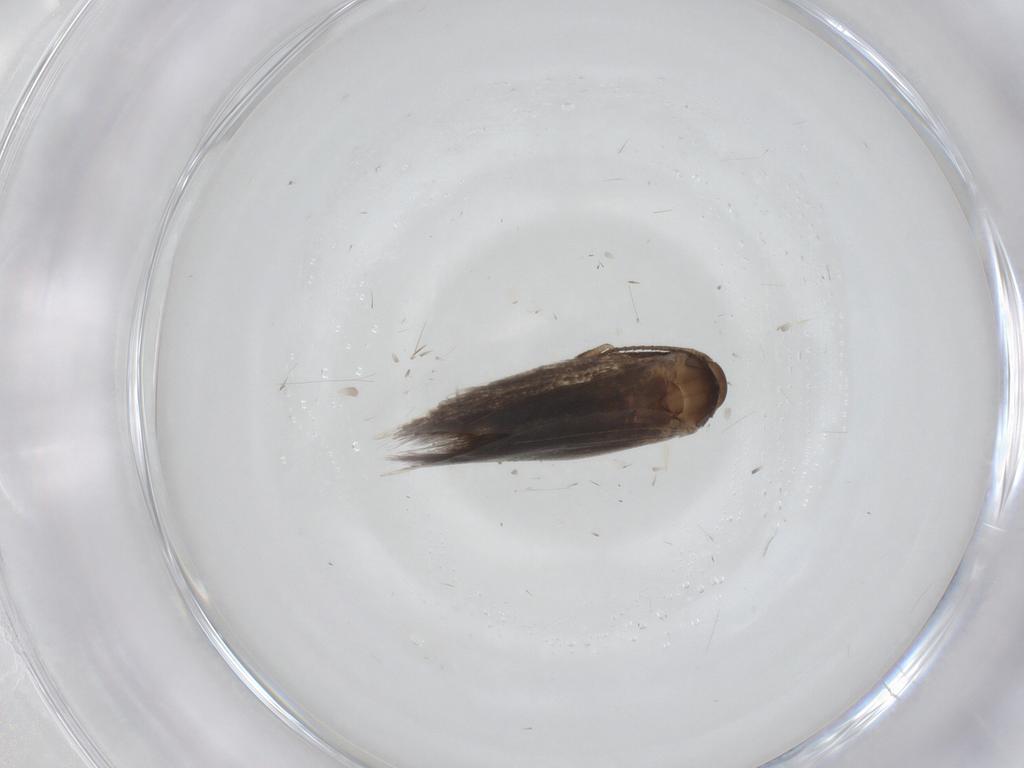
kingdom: Animalia
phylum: Arthropoda
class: Insecta
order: Lepidoptera
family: Elachistidae
